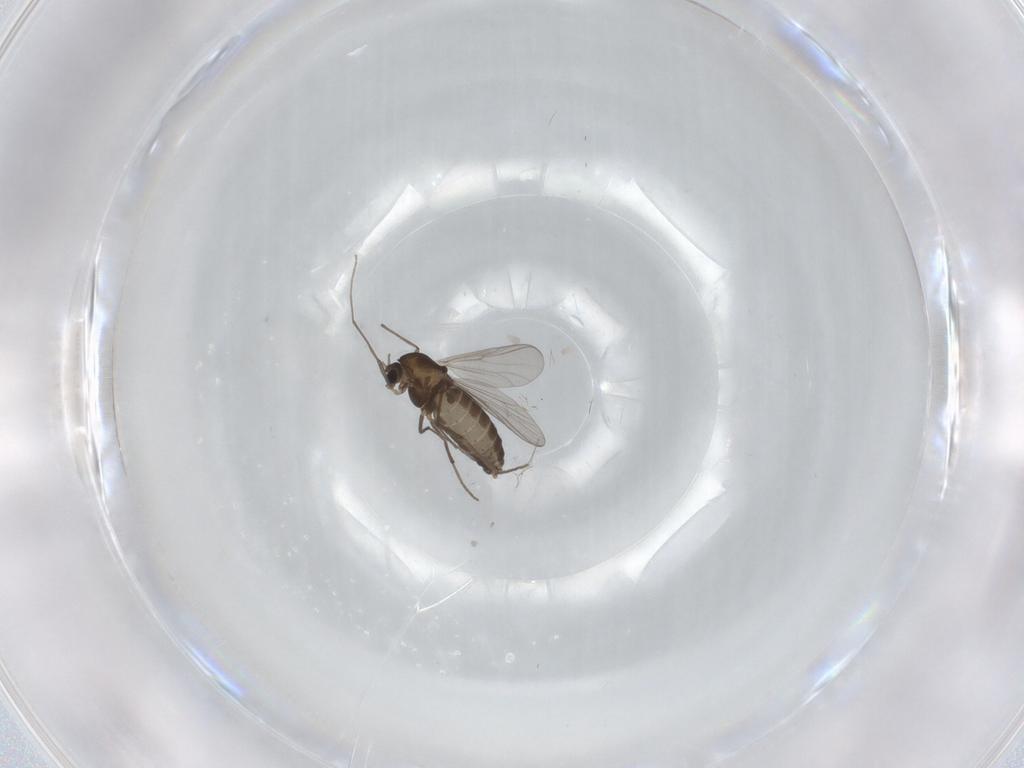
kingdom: Animalia
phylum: Arthropoda
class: Insecta
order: Diptera
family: Chironomidae
